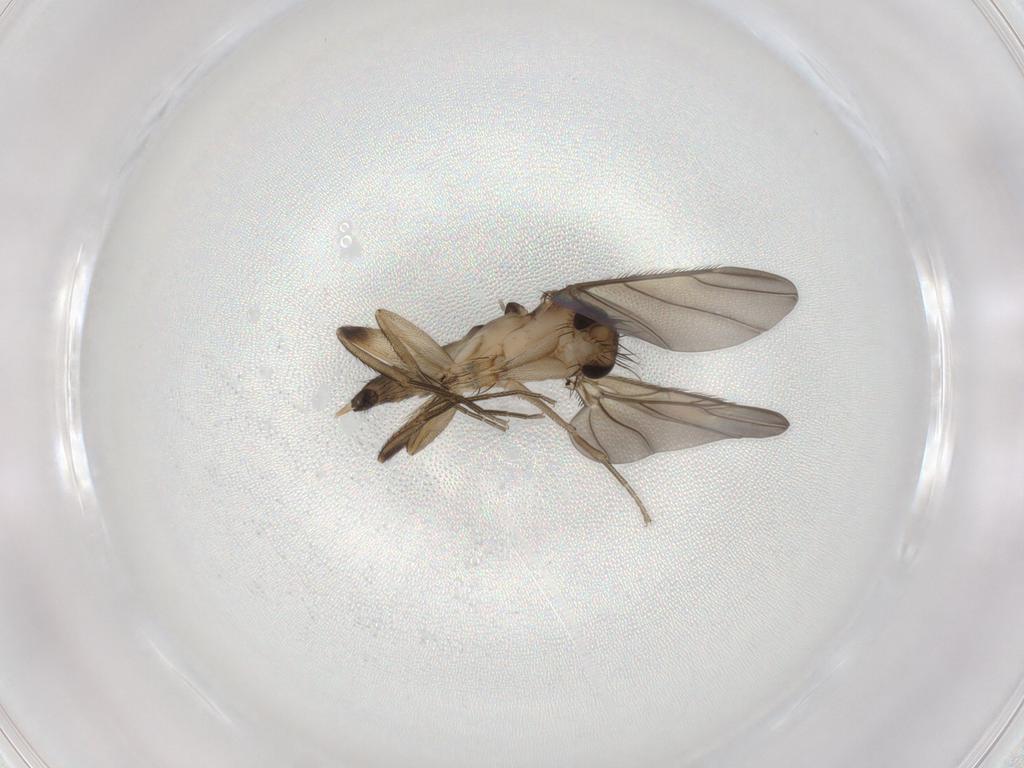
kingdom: Animalia
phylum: Arthropoda
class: Insecta
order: Diptera
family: Phoridae
